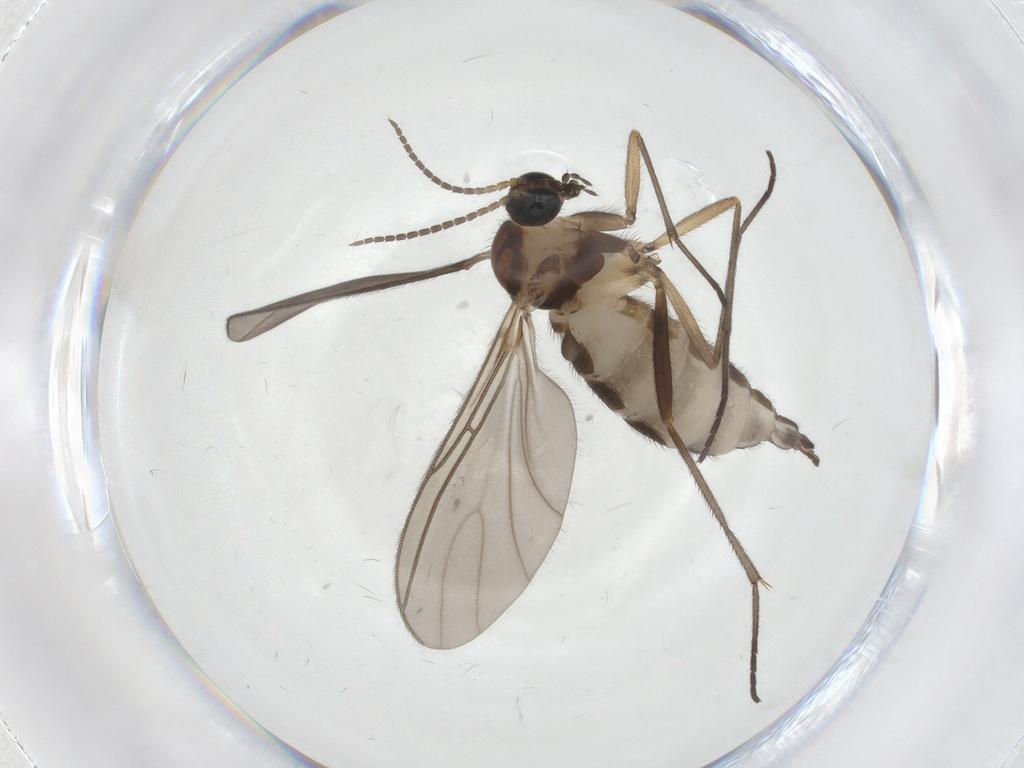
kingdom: Animalia
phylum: Arthropoda
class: Insecta
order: Diptera
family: Sciaridae
